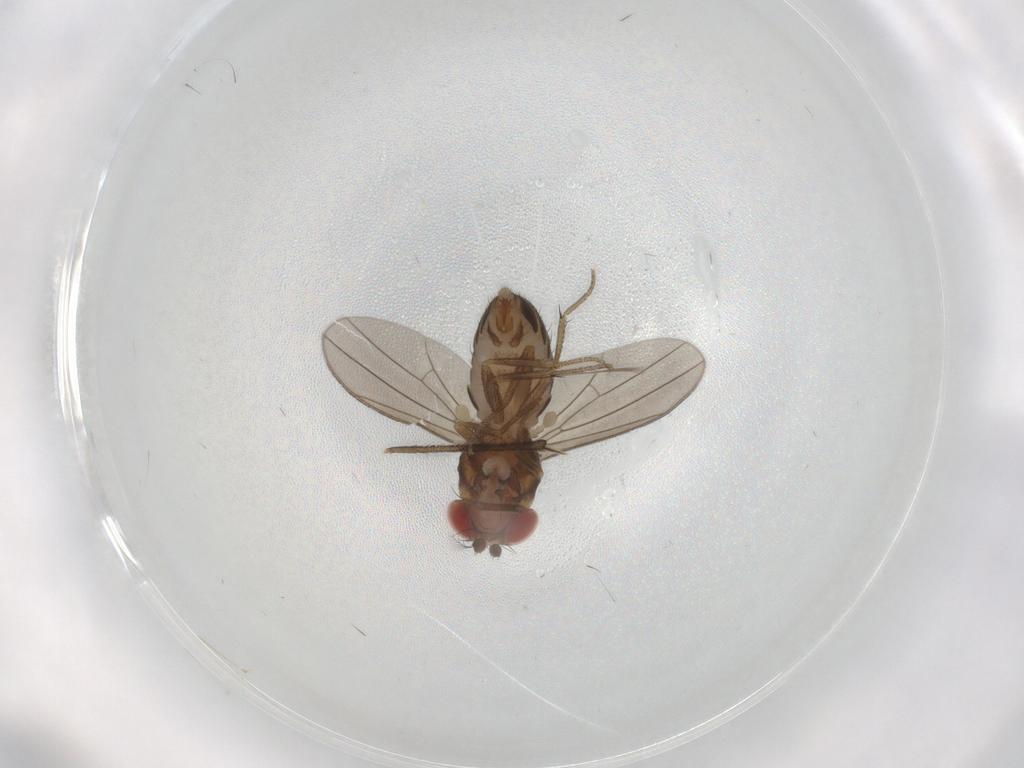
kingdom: Animalia
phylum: Arthropoda
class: Insecta
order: Diptera
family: Drosophilidae
